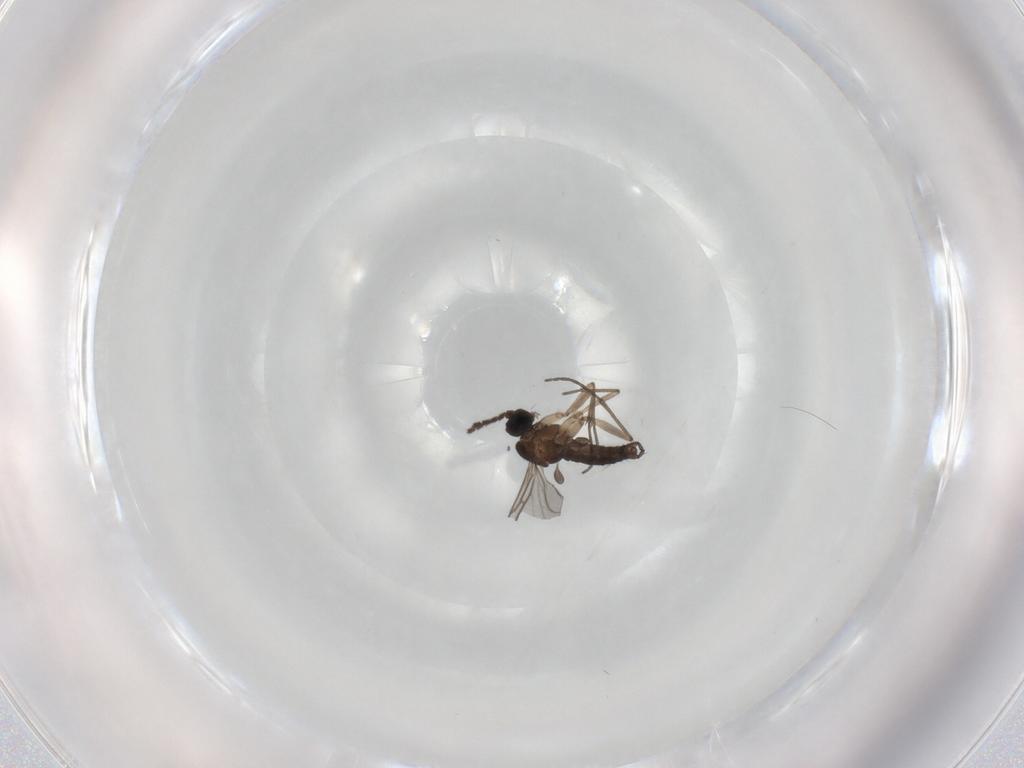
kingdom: Animalia
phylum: Arthropoda
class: Insecta
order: Diptera
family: Sciaridae
